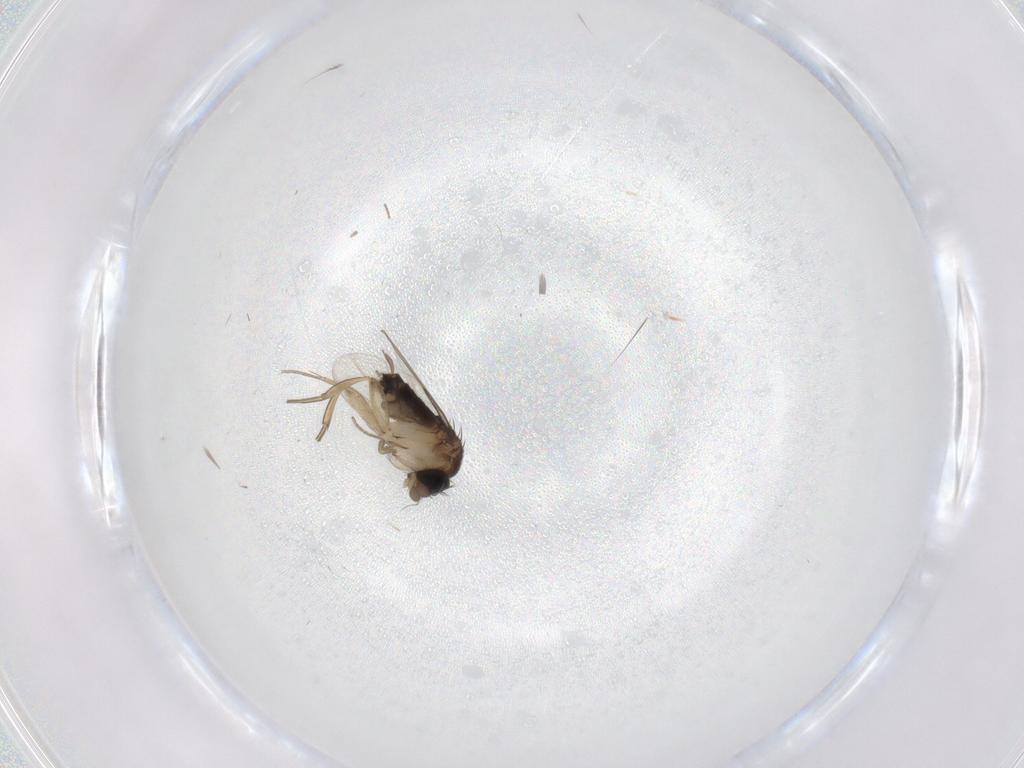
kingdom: Animalia
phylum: Arthropoda
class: Insecta
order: Diptera
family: Cecidomyiidae
